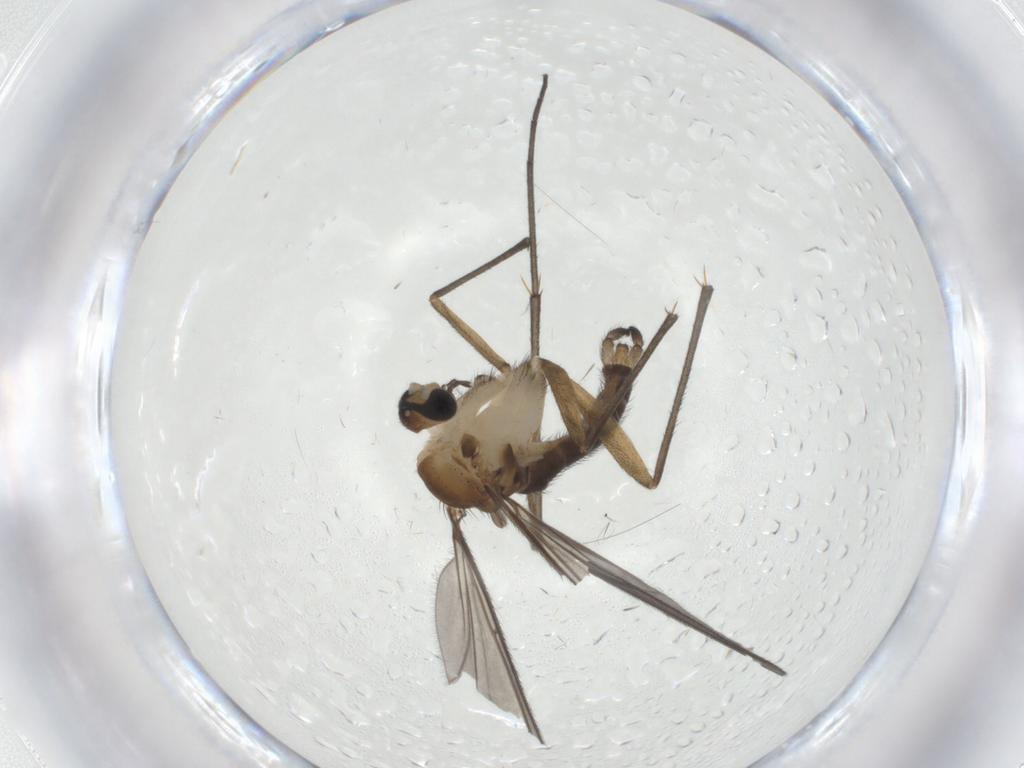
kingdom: Animalia
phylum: Arthropoda
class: Insecta
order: Diptera
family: Sciaridae
